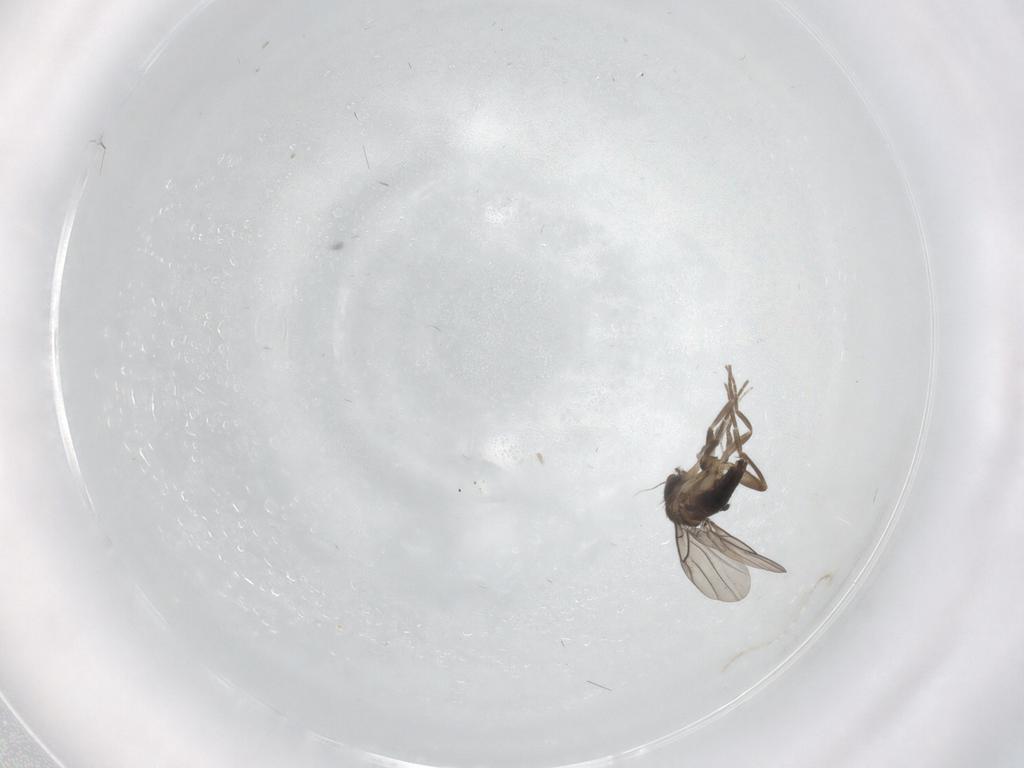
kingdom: Animalia
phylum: Arthropoda
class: Insecta
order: Diptera
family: Cecidomyiidae
